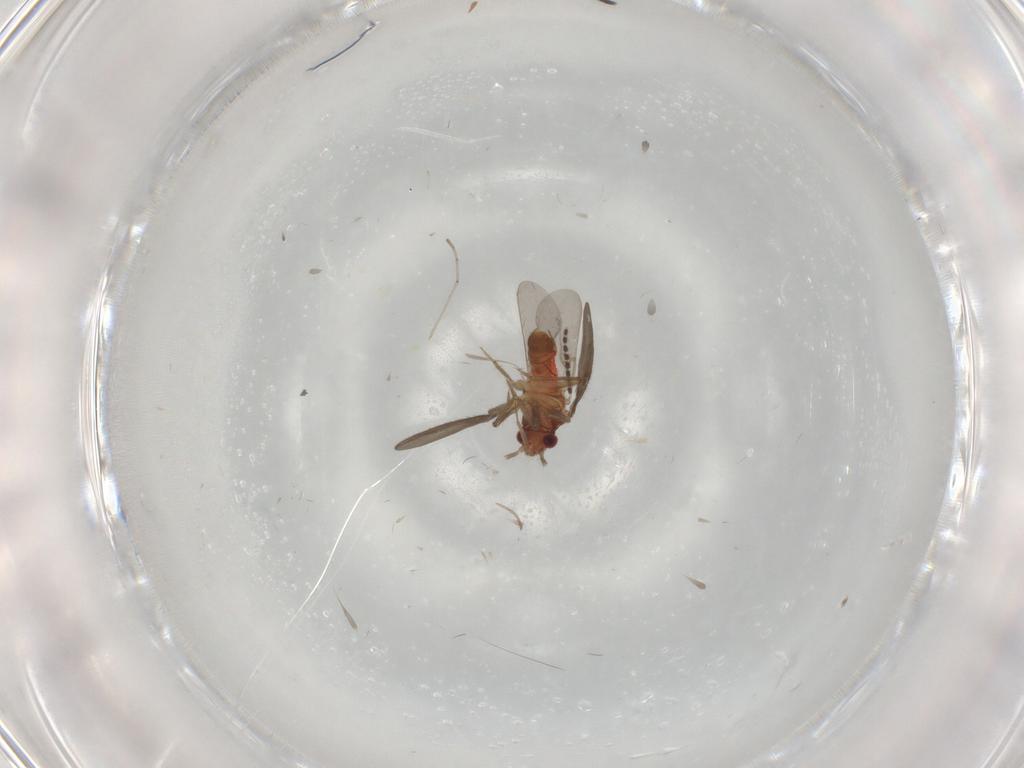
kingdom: Animalia
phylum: Arthropoda
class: Insecta
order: Hemiptera
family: Ceratocombidae
